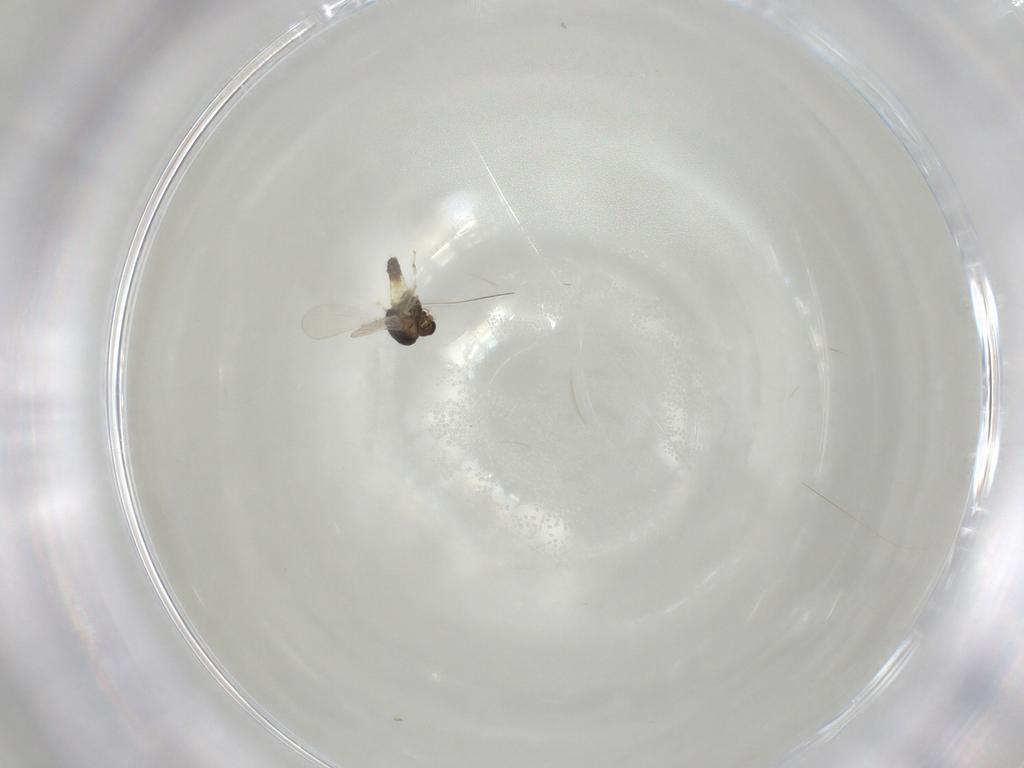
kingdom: Animalia
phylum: Arthropoda
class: Insecta
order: Diptera
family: Chironomidae
